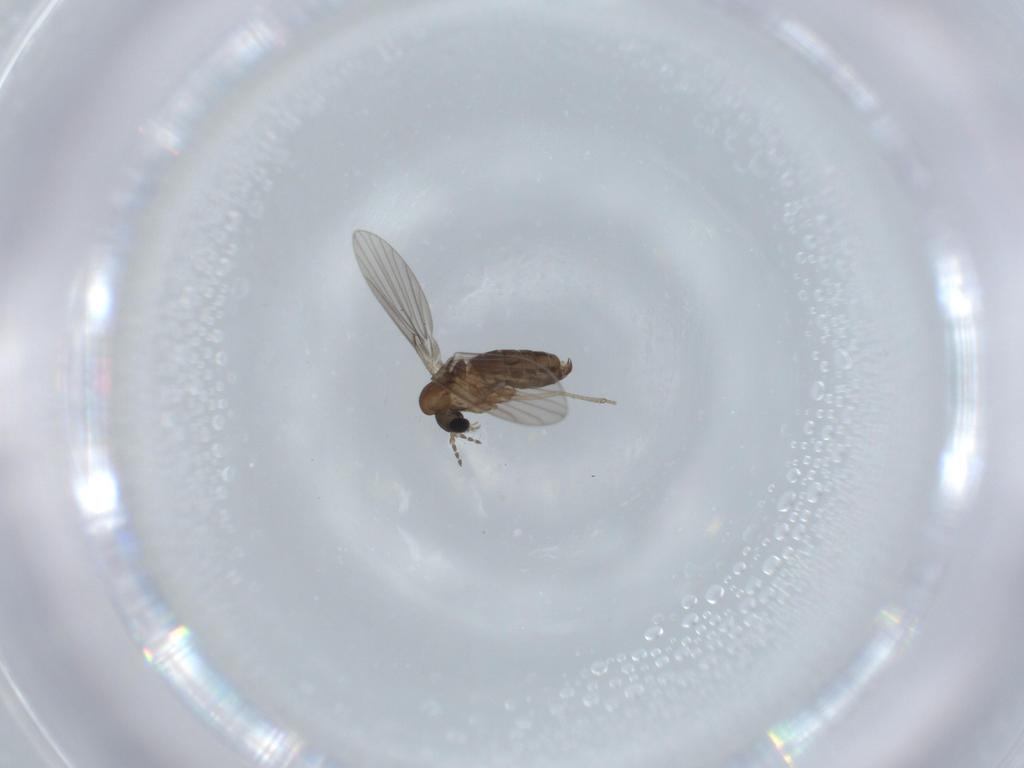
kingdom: Animalia
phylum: Arthropoda
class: Insecta
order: Diptera
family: Psychodidae
